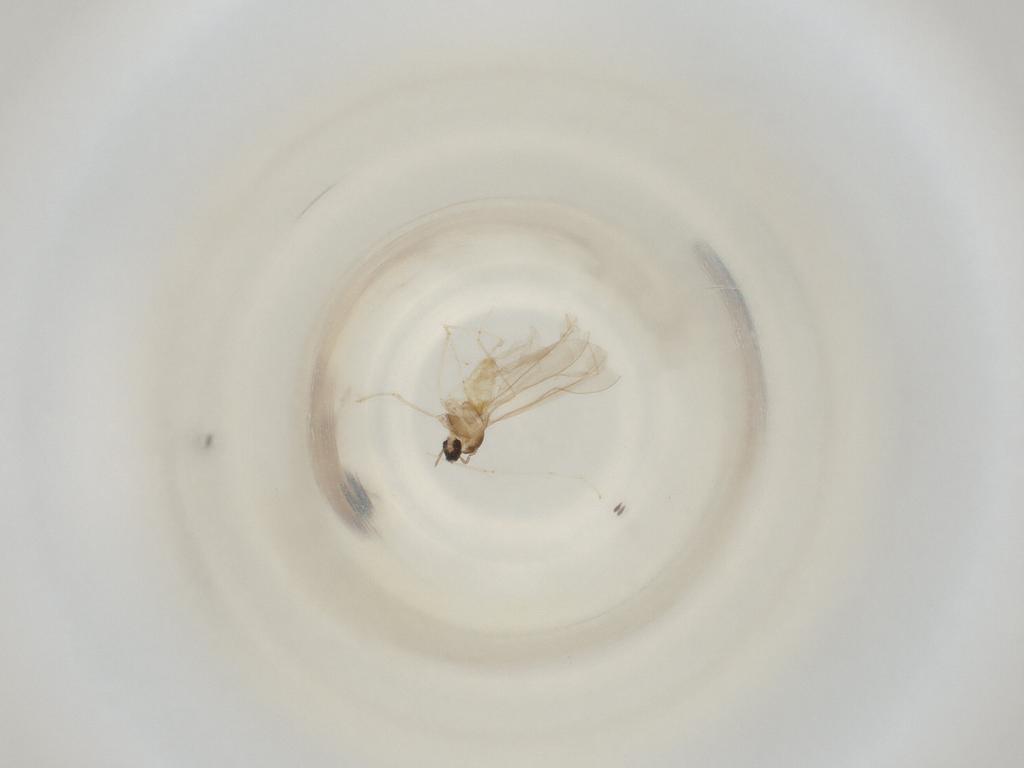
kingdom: Animalia
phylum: Arthropoda
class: Insecta
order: Diptera
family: Cecidomyiidae
